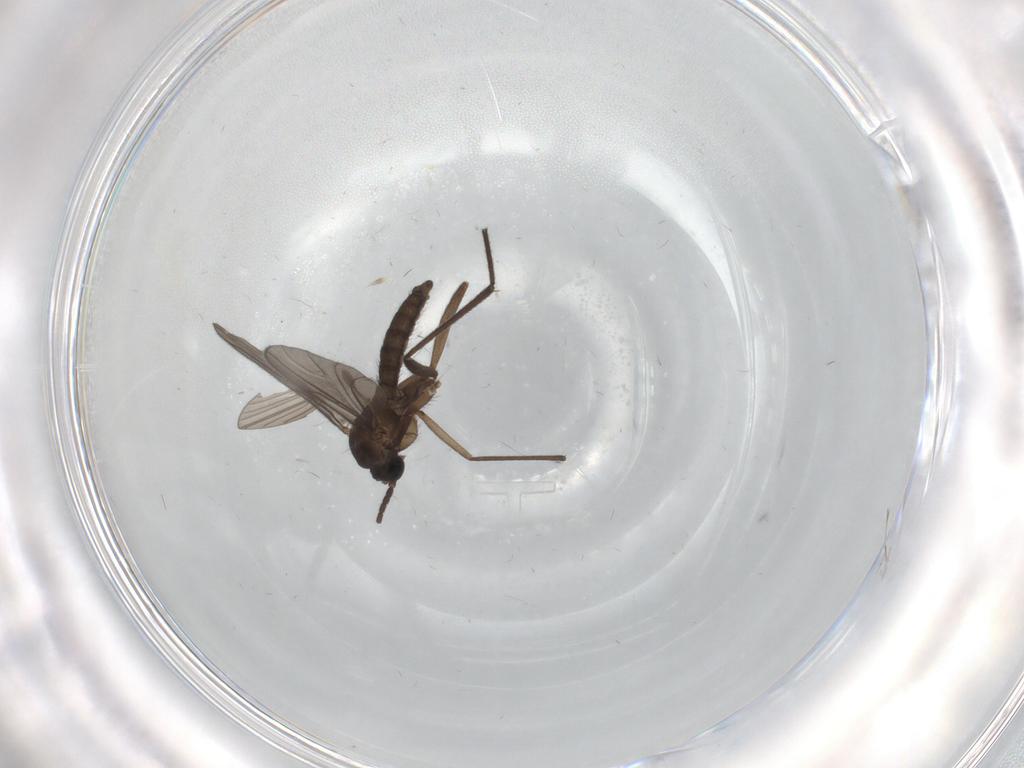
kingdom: Animalia
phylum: Arthropoda
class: Insecta
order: Diptera
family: Sciaridae
